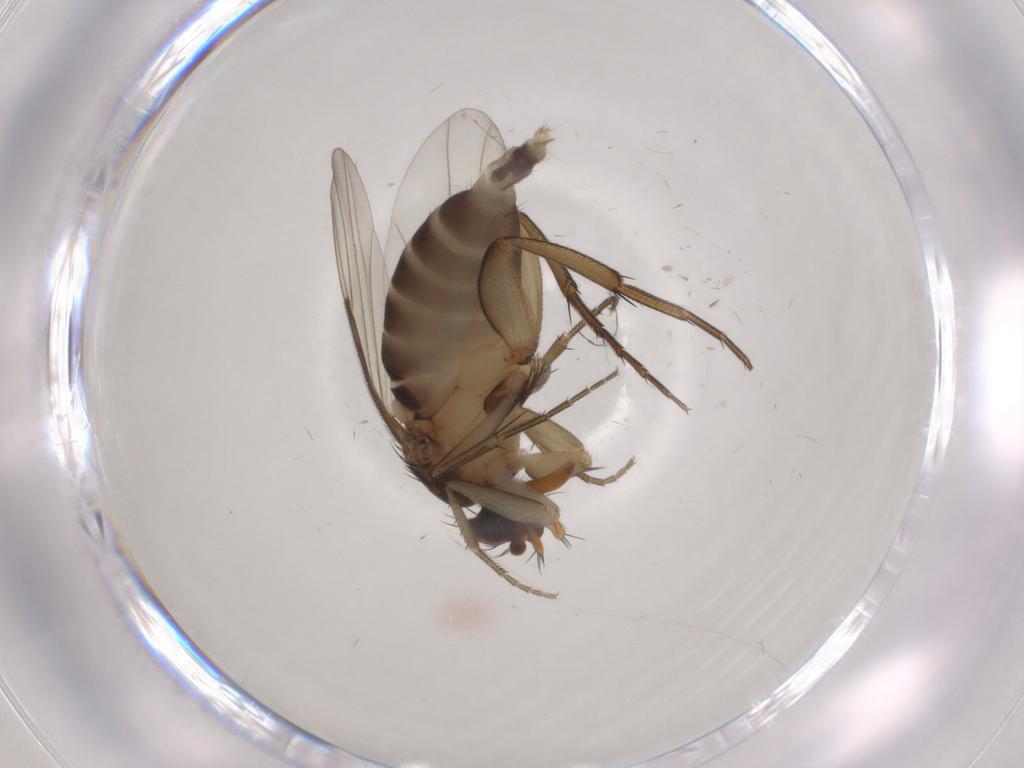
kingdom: Animalia
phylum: Arthropoda
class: Insecta
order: Diptera
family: Phoridae
